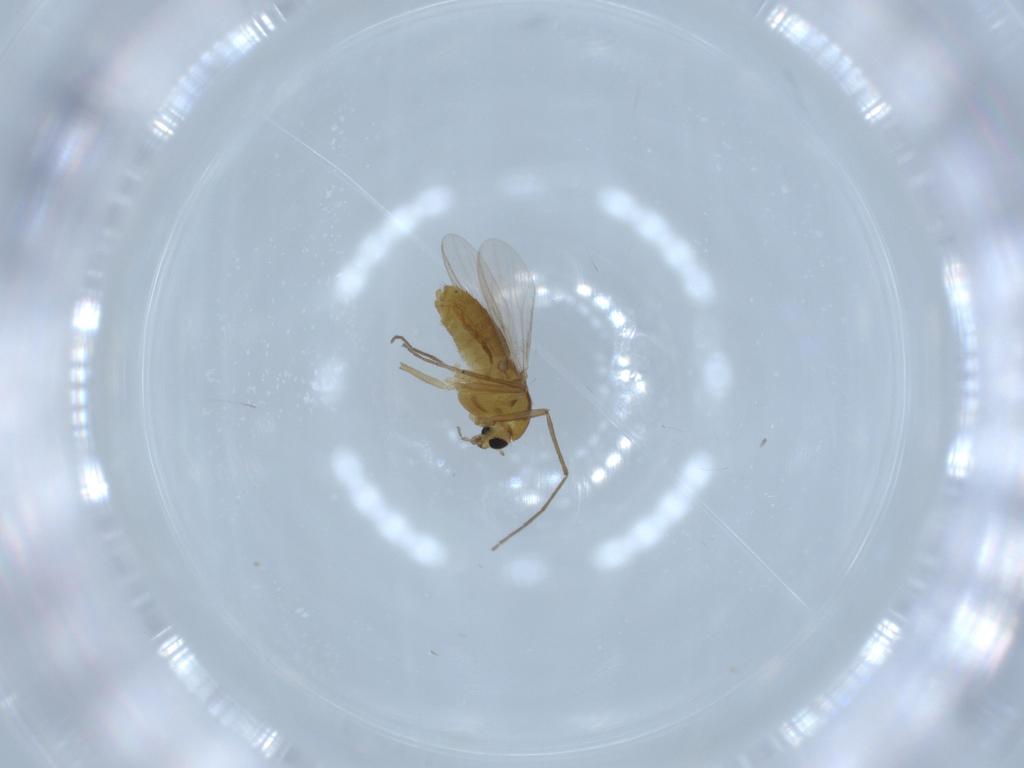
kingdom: Animalia
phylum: Arthropoda
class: Insecta
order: Diptera
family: Chironomidae
